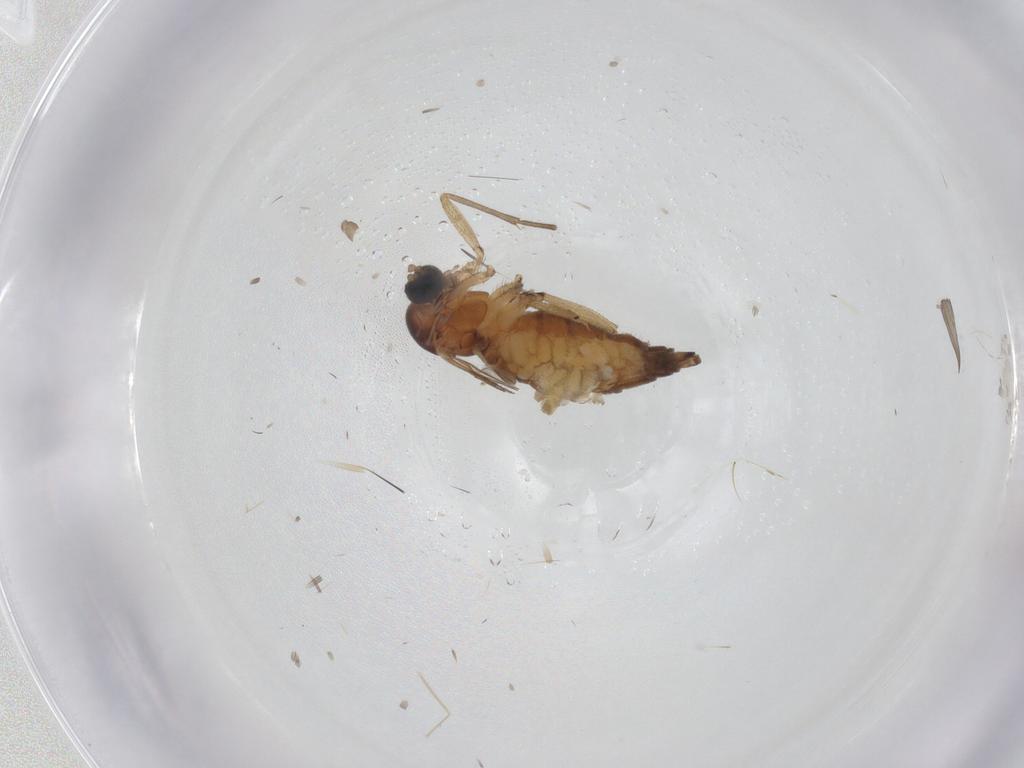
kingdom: Animalia
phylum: Arthropoda
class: Insecta
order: Diptera
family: Sciaridae
